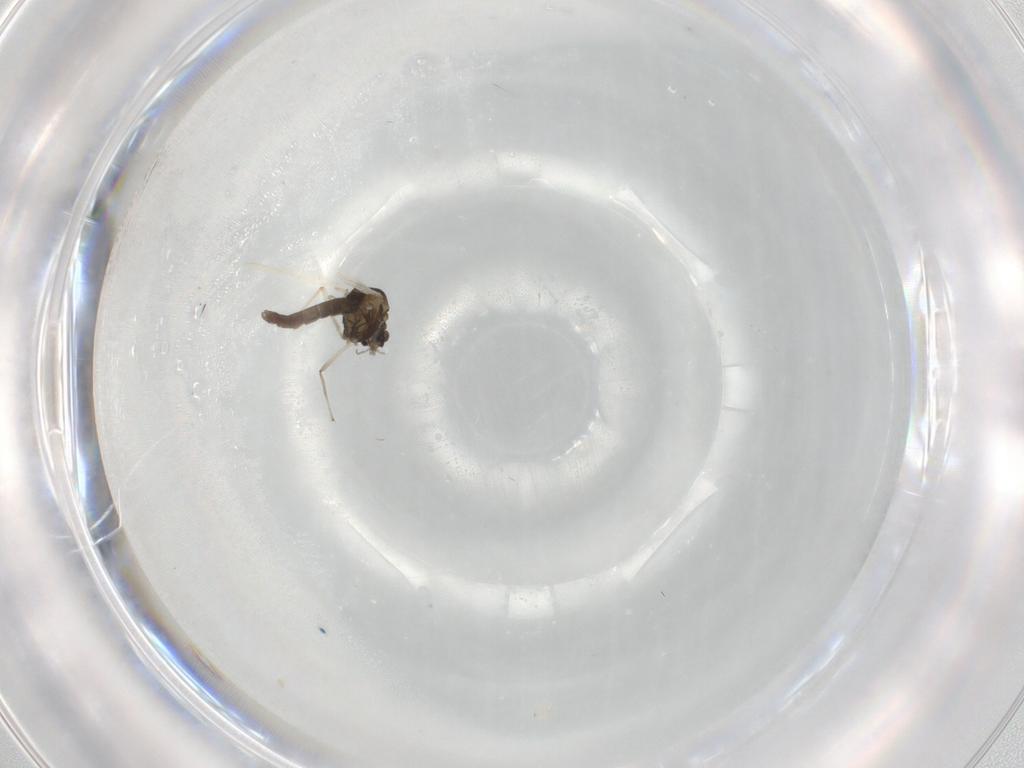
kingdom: Animalia
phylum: Arthropoda
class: Insecta
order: Diptera
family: Chironomidae
